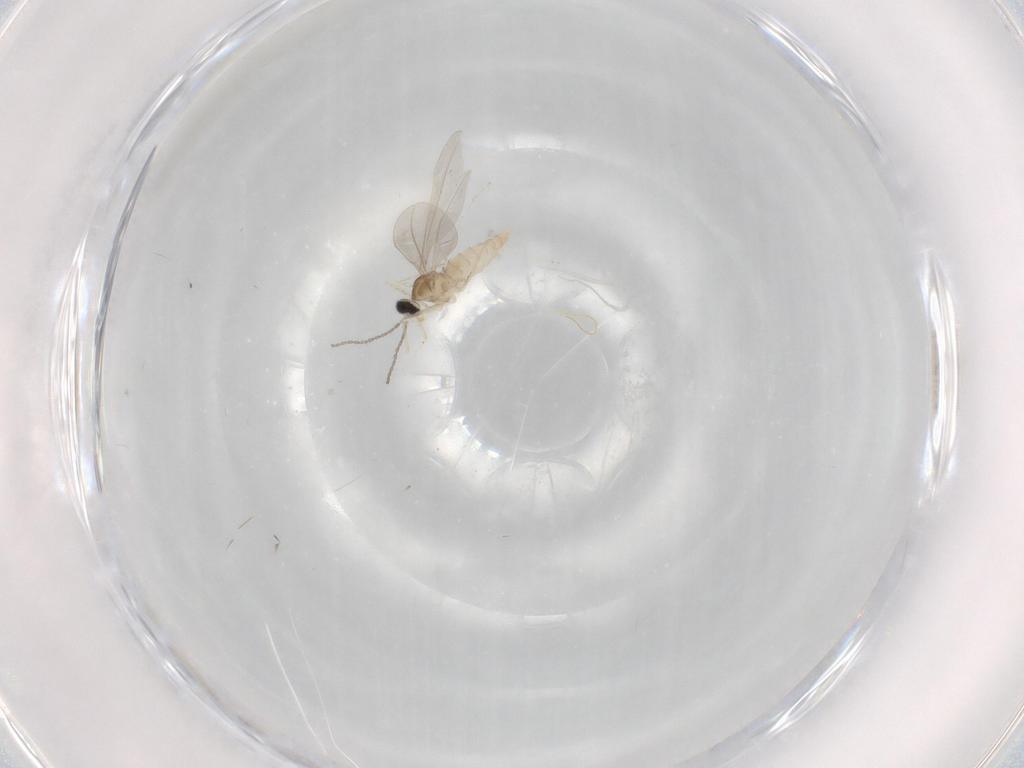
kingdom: Animalia
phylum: Arthropoda
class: Insecta
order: Diptera
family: Cecidomyiidae
